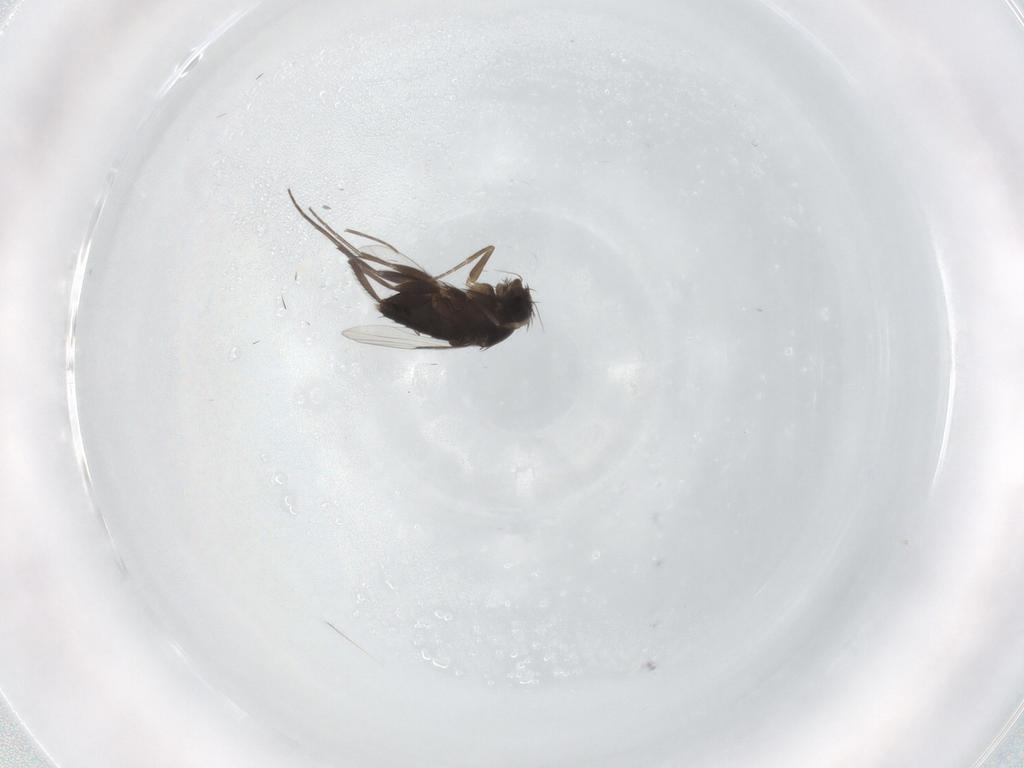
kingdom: Animalia
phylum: Arthropoda
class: Insecta
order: Diptera
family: Phoridae
